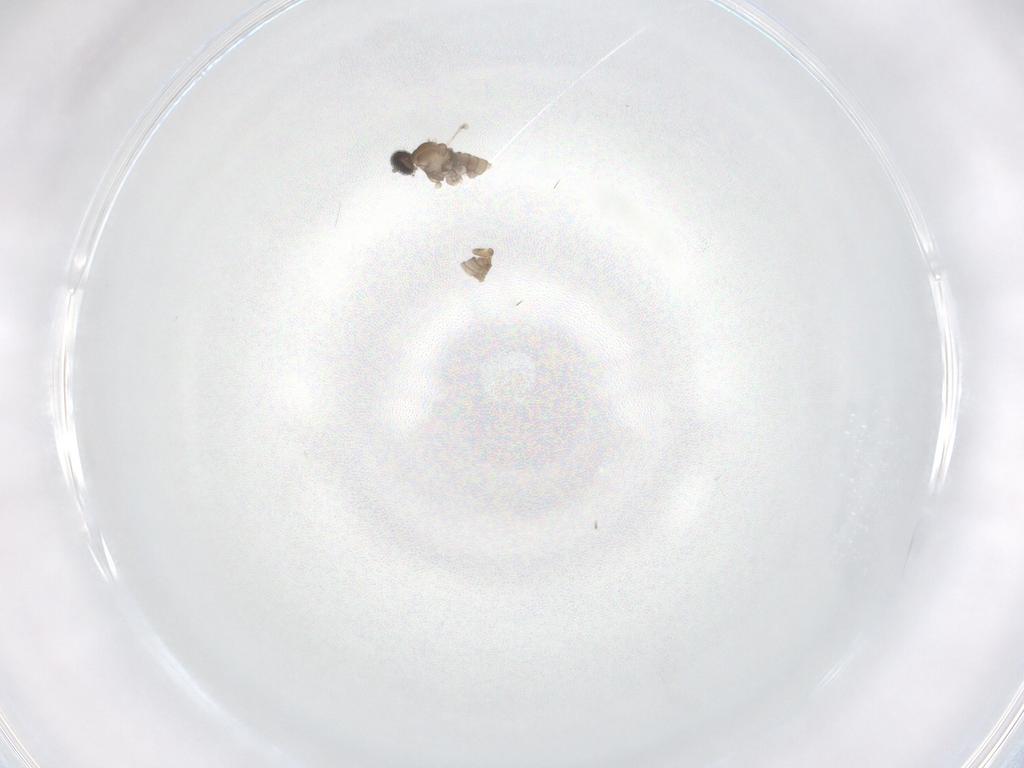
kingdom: Animalia
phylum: Arthropoda
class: Insecta
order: Diptera
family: Cecidomyiidae
